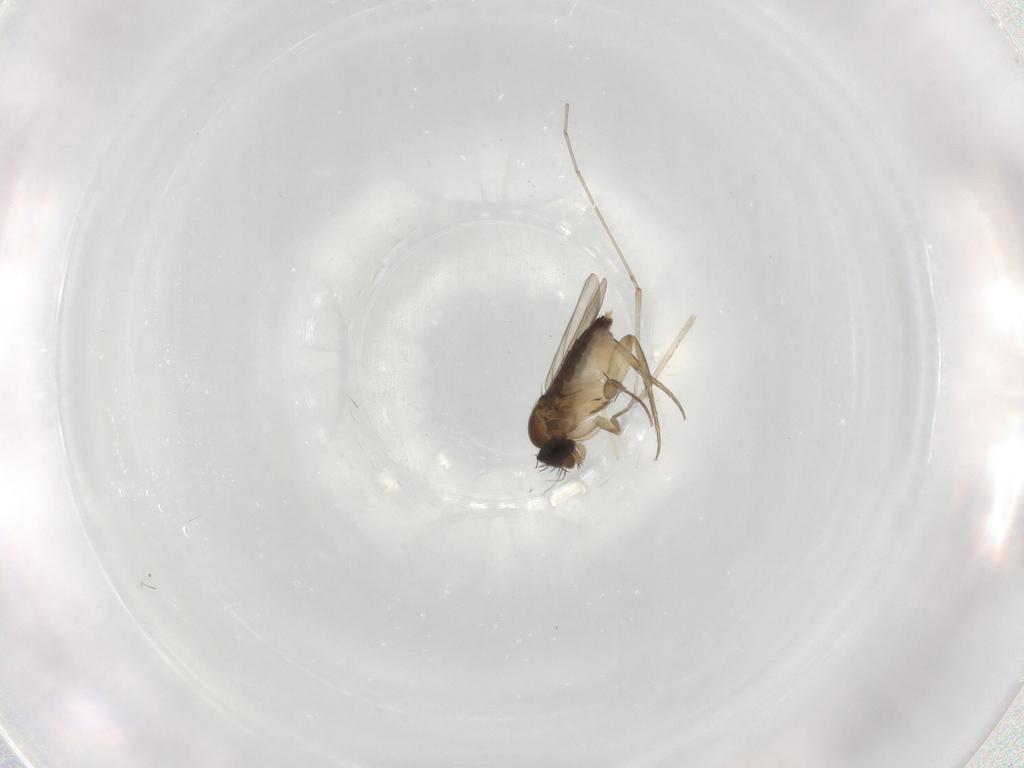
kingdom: Animalia
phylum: Arthropoda
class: Insecta
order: Diptera
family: Phoridae
